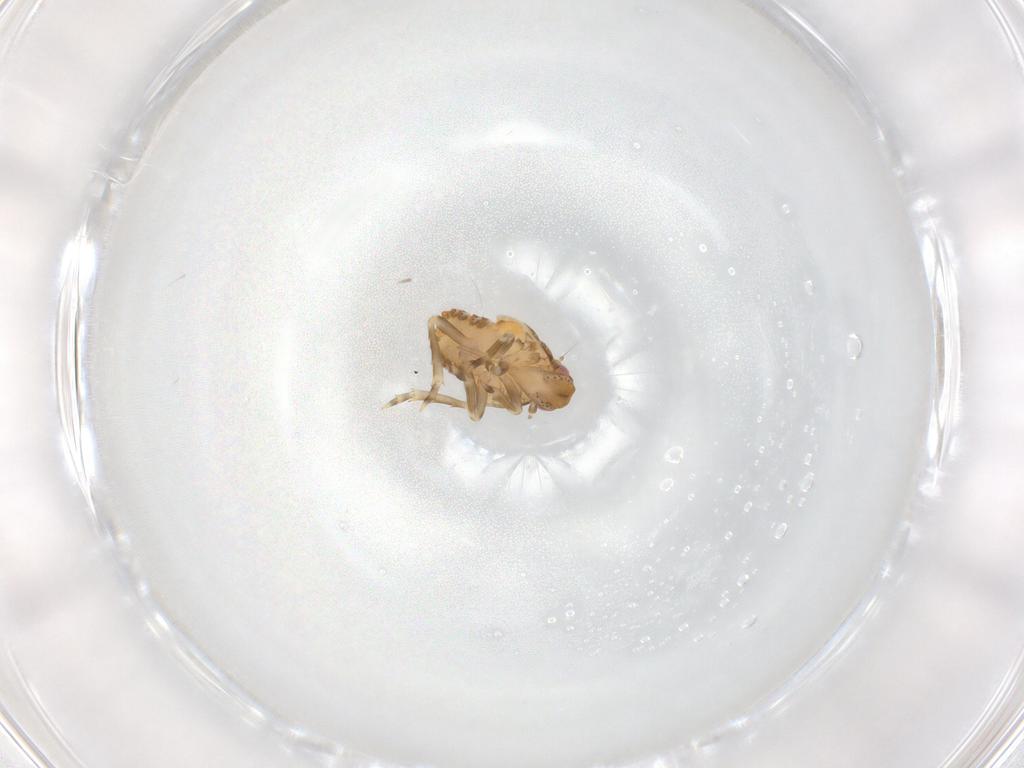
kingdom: Animalia
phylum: Arthropoda
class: Insecta
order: Hemiptera
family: Flatidae
